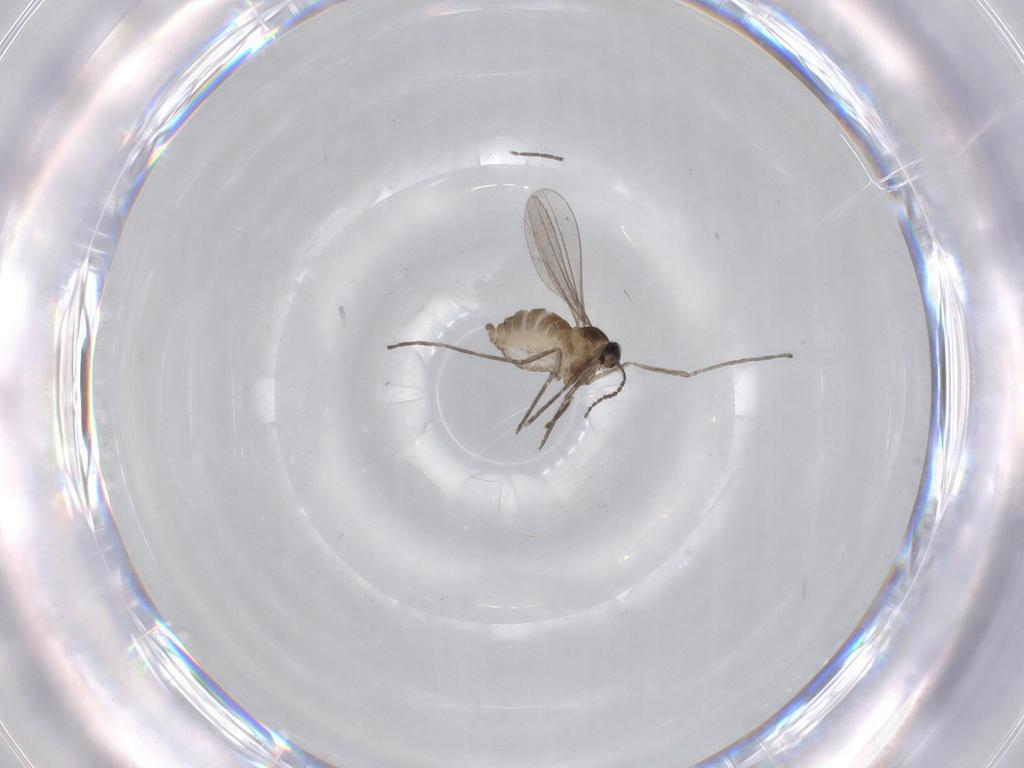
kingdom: Animalia
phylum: Arthropoda
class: Insecta
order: Diptera
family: Cecidomyiidae
